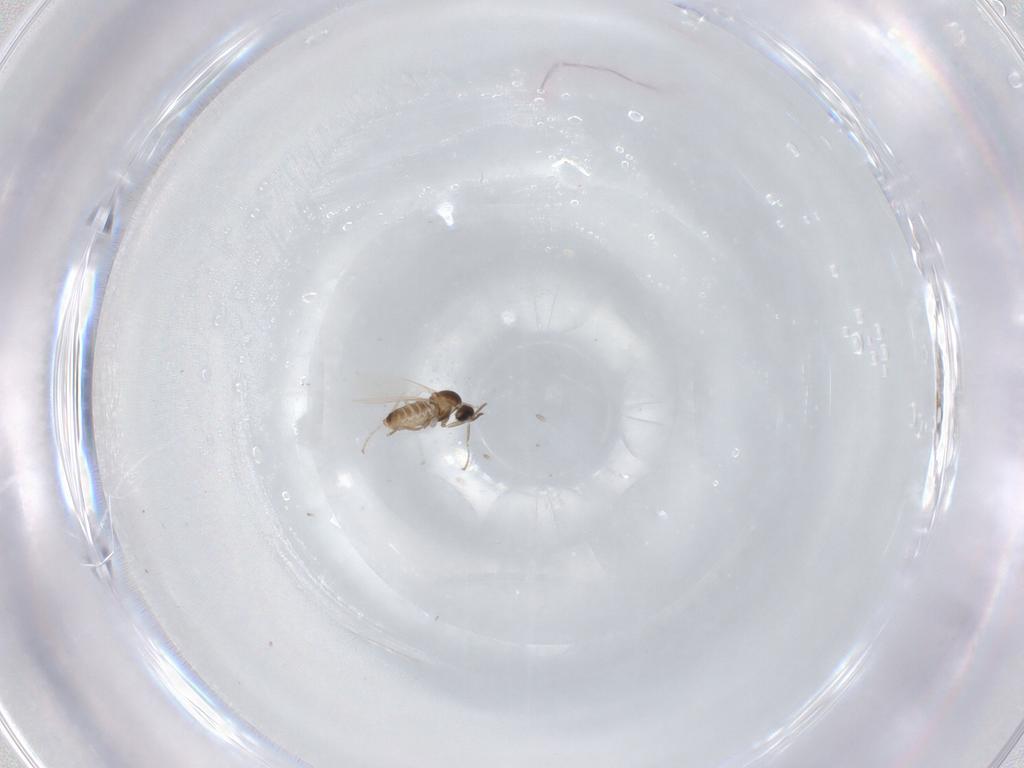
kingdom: Animalia
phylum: Arthropoda
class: Insecta
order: Diptera
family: Cecidomyiidae
